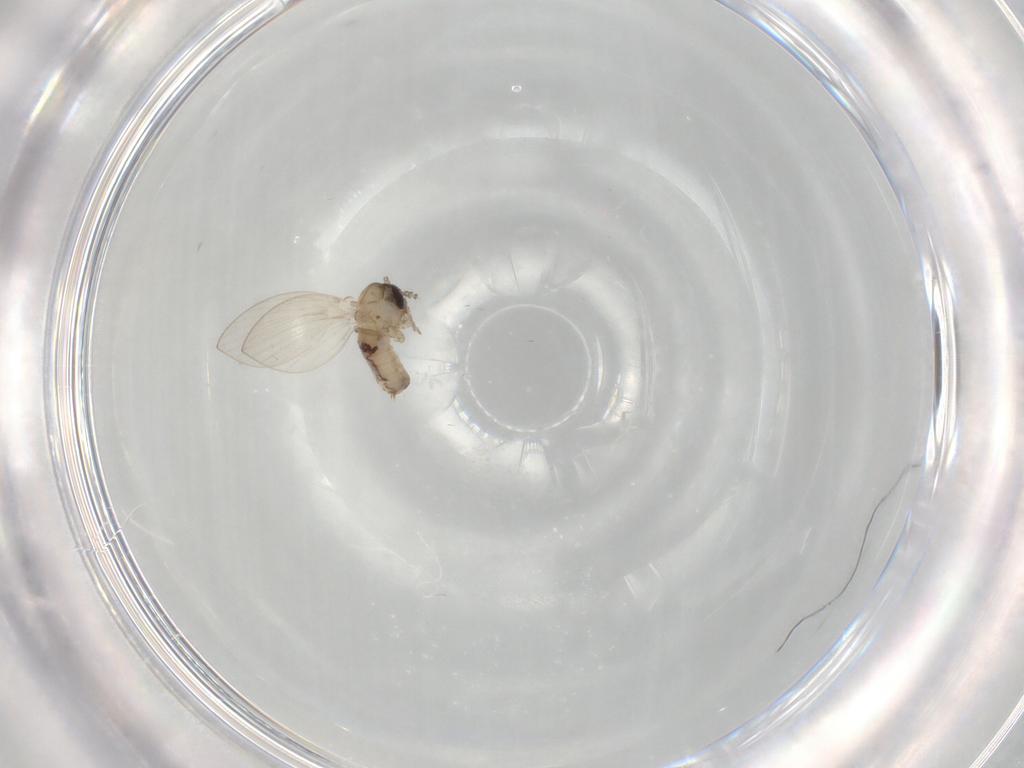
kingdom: Animalia
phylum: Arthropoda
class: Insecta
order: Diptera
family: Psychodidae
